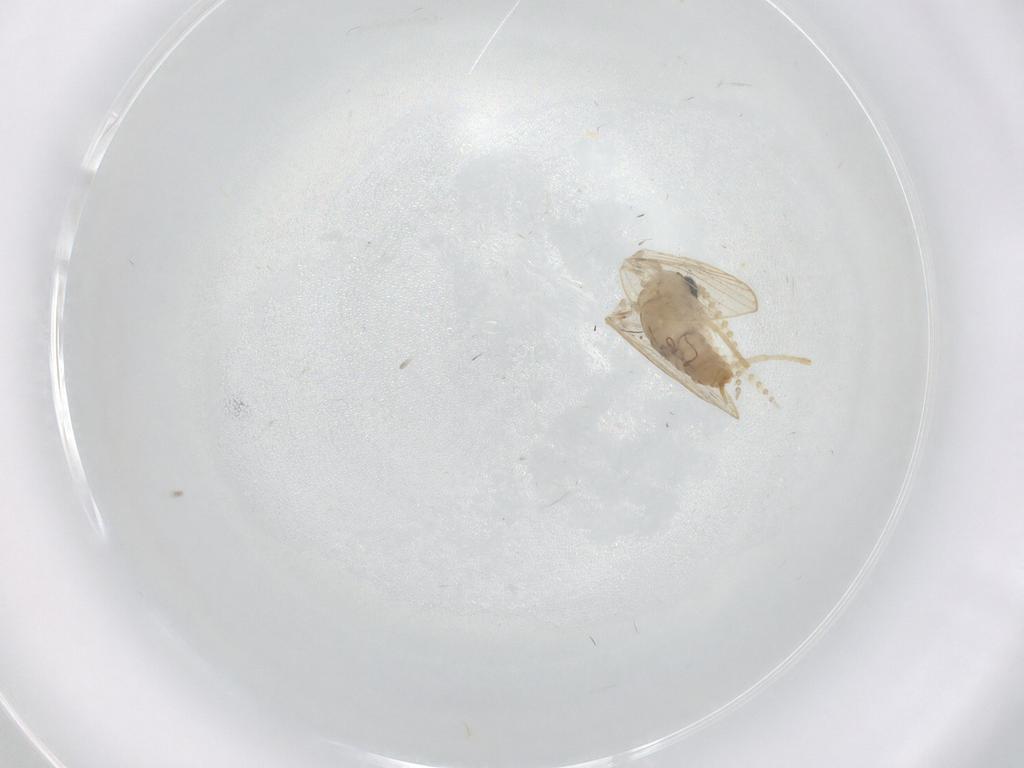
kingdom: Animalia
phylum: Arthropoda
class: Insecta
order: Diptera
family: Psychodidae
